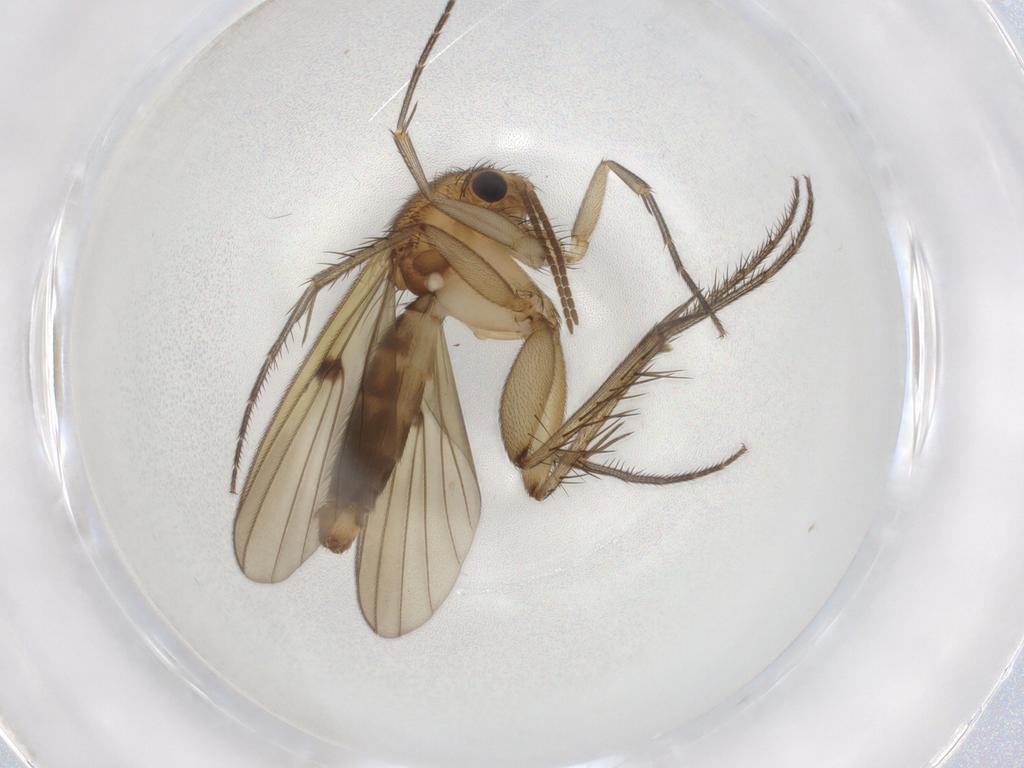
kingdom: Animalia
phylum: Arthropoda
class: Insecta
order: Diptera
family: Mycetophilidae
